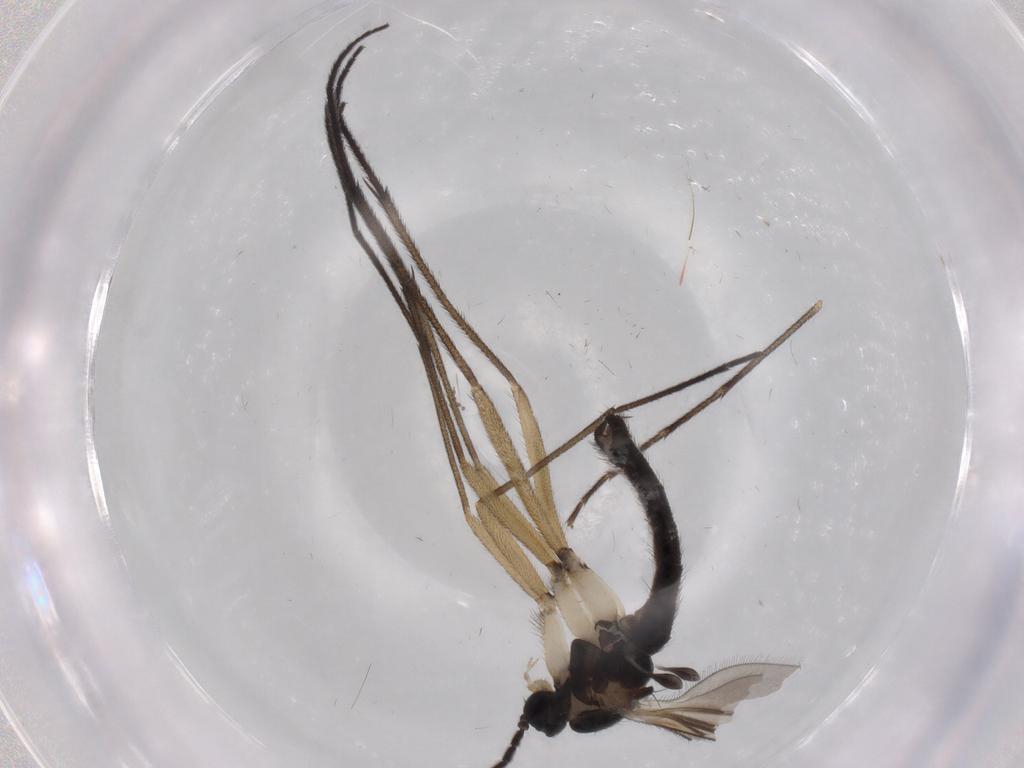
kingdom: Animalia
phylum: Arthropoda
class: Insecta
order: Diptera
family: Sciaridae
